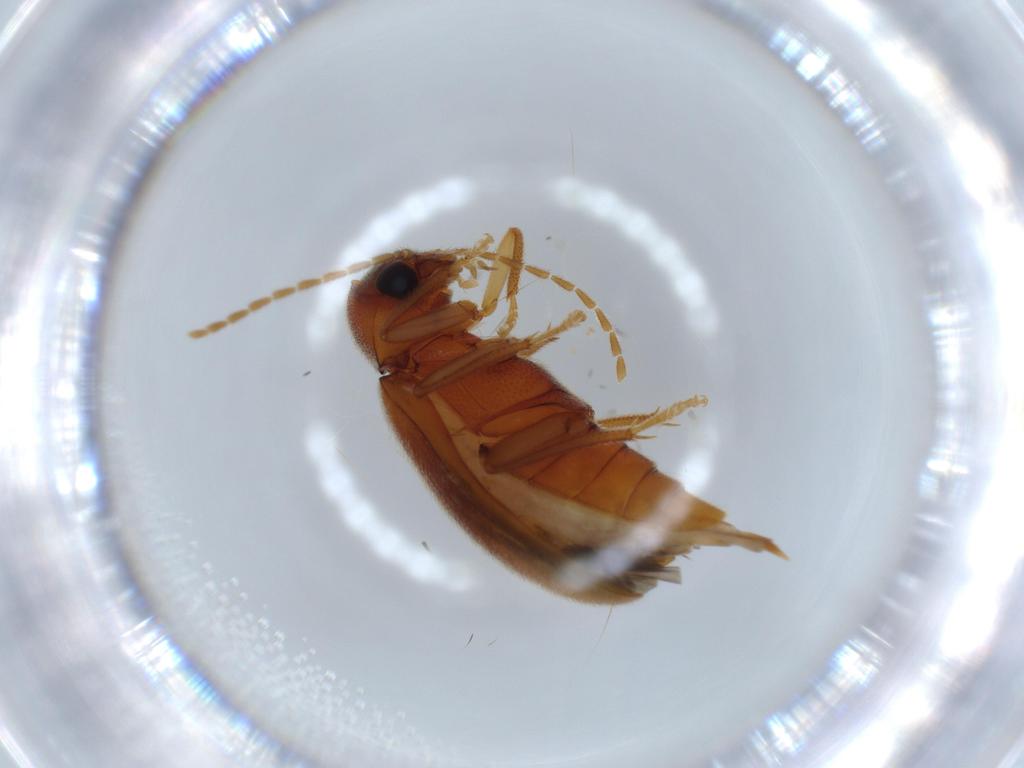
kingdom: Animalia
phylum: Arthropoda
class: Insecta
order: Coleoptera
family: Ptilodactylidae
